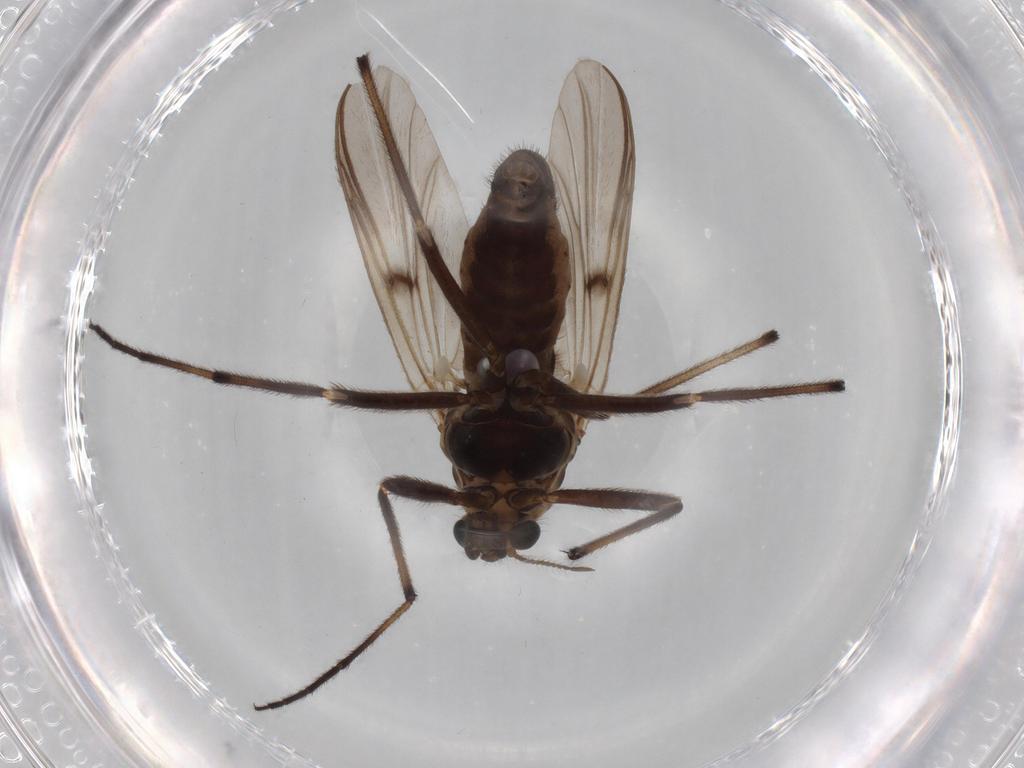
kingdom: Animalia
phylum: Arthropoda
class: Insecta
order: Diptera
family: Chironomidae
